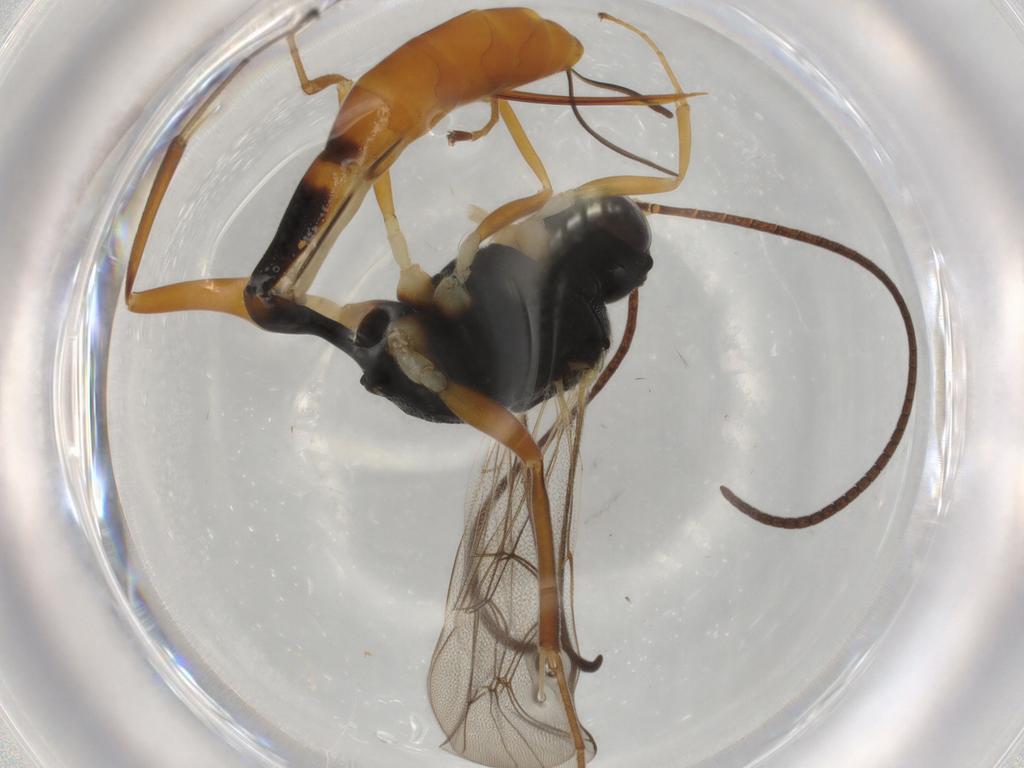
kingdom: Animalia
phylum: Arthropoda
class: Insecta
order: Hymenoptera
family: Ichneumonidae
